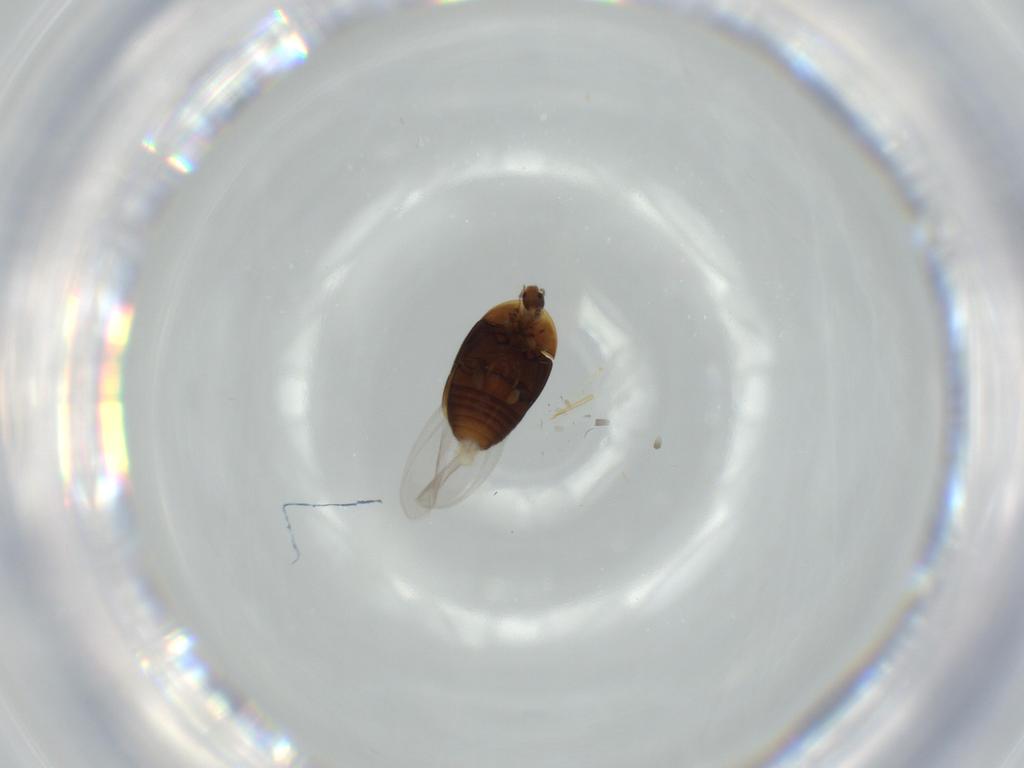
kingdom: Animalia
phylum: Arthropoda
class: Insecta
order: Coleoptera
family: Corylophidae
